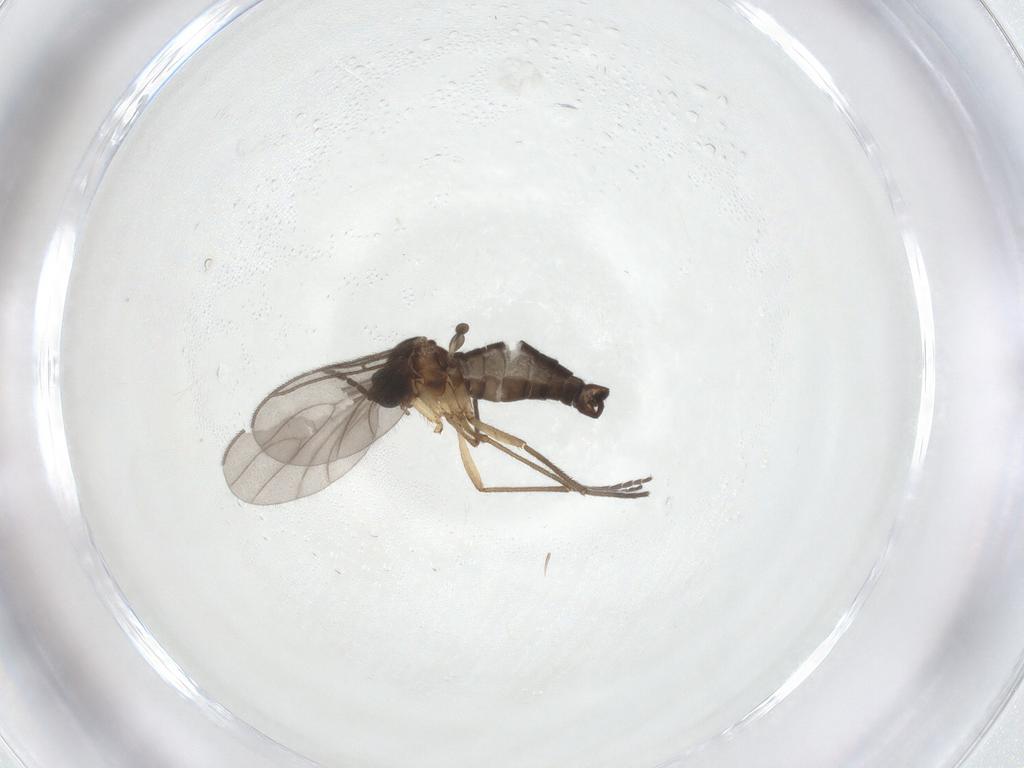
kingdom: Animalia
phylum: Arthropoda
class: Insecta
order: Diptera
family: Sciaridae
